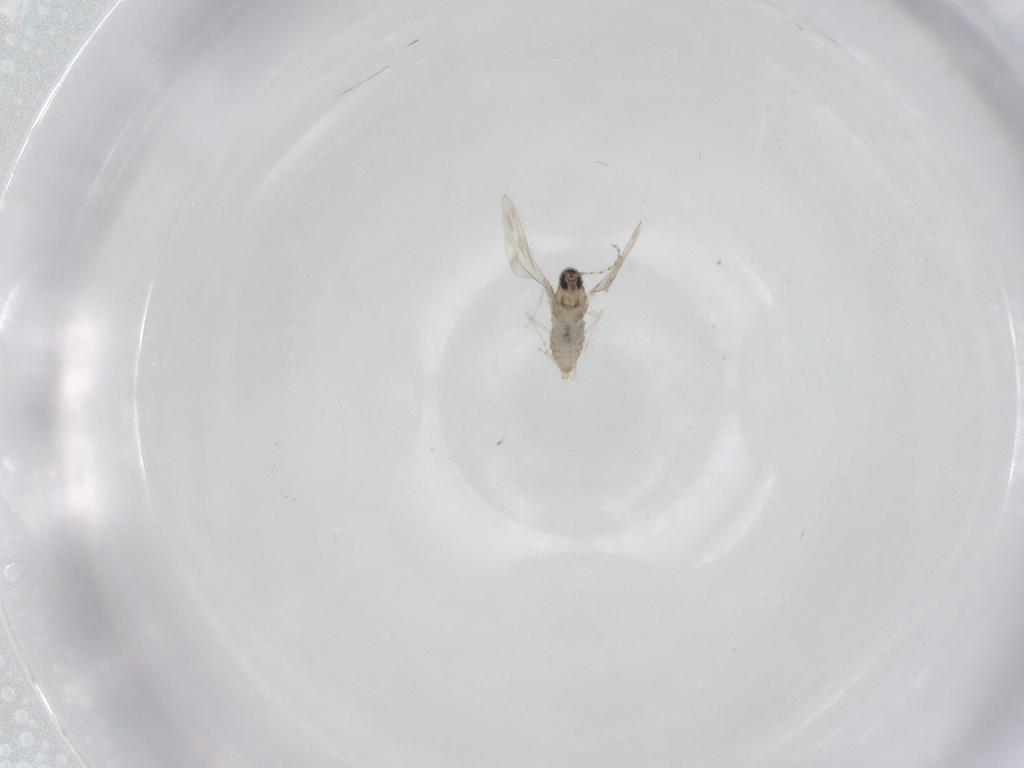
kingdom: Animalia
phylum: Arthropoda
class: Insecta
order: Diptera
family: Cecidomyiidae
